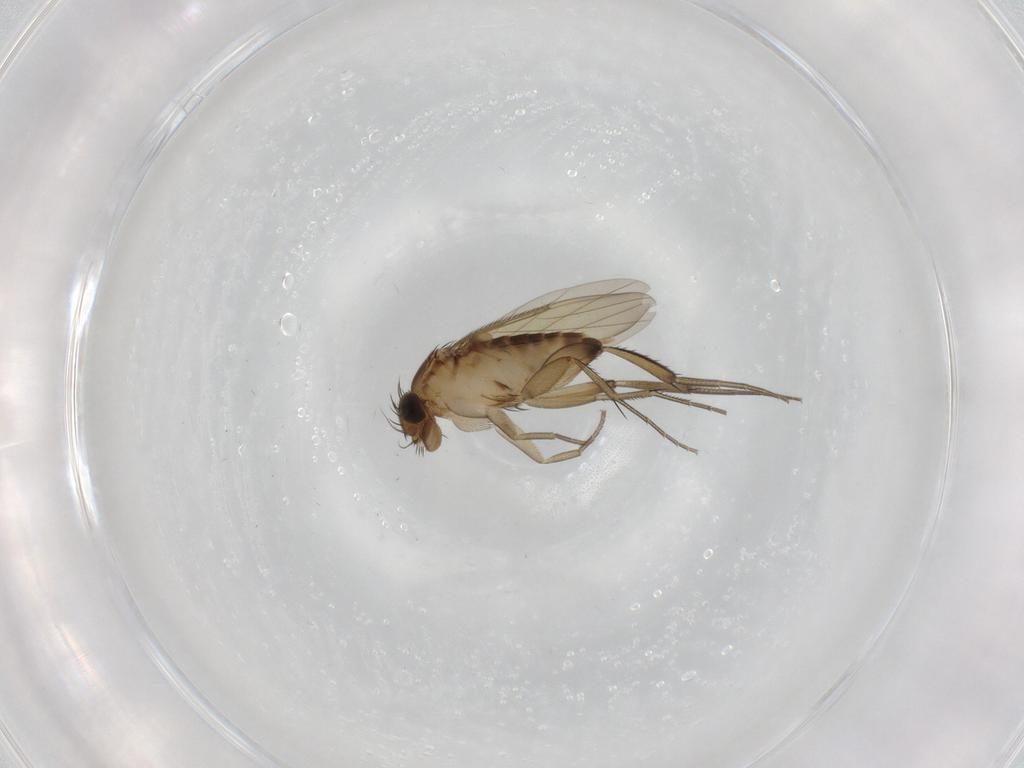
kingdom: Animalia
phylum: Arthropoda
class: Insecta
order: Diptera
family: Phoridae
